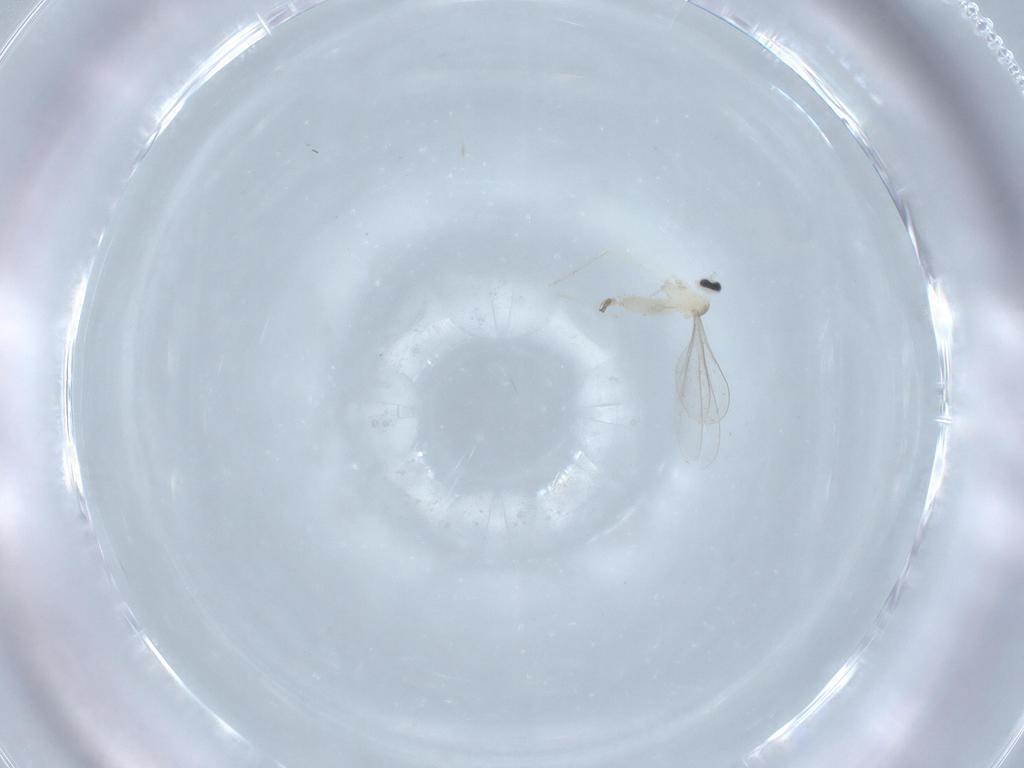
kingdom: Animalia
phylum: Arthropoda
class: Insecta
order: Diptera
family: Cecidomyiidae
